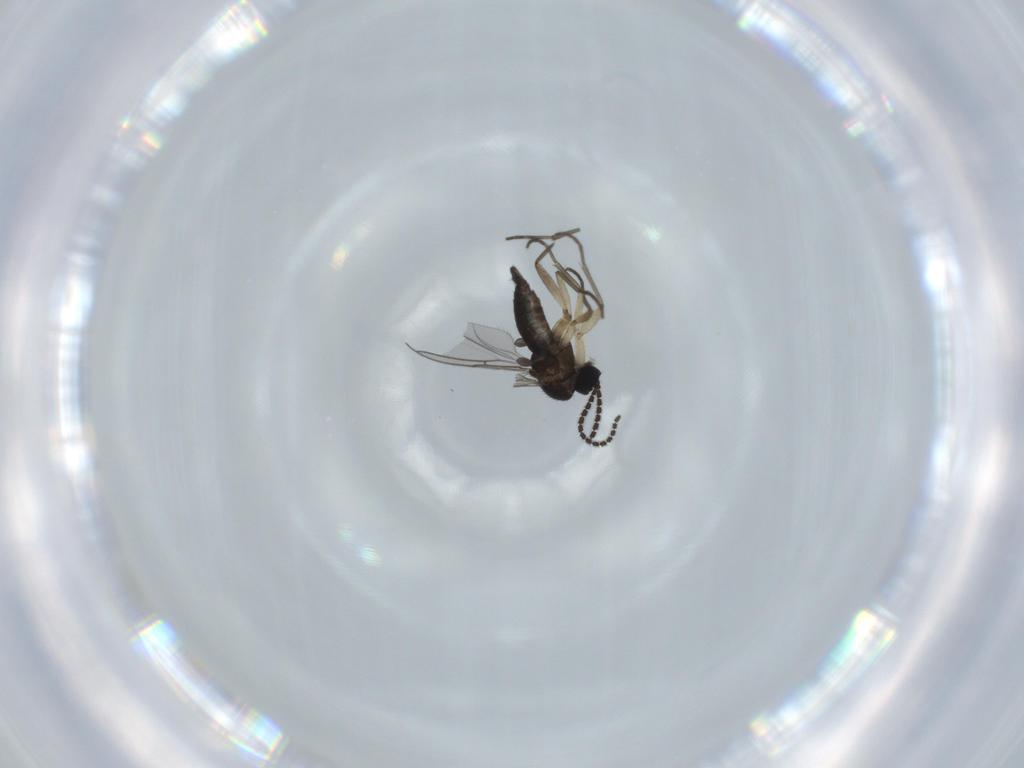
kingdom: Animalia
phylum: Arthropoda
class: Insecta
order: Diptera
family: Sciaridae
